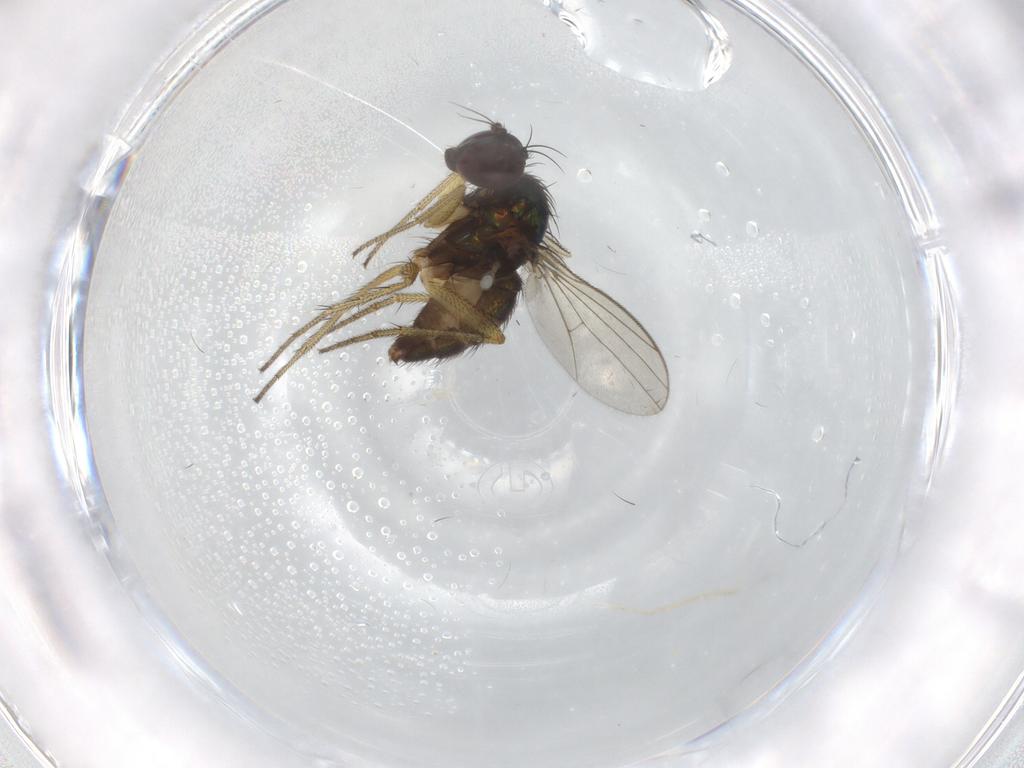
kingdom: Animalia
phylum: Arthropoda
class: Insecta
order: Diptera
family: Dolichopodidae
